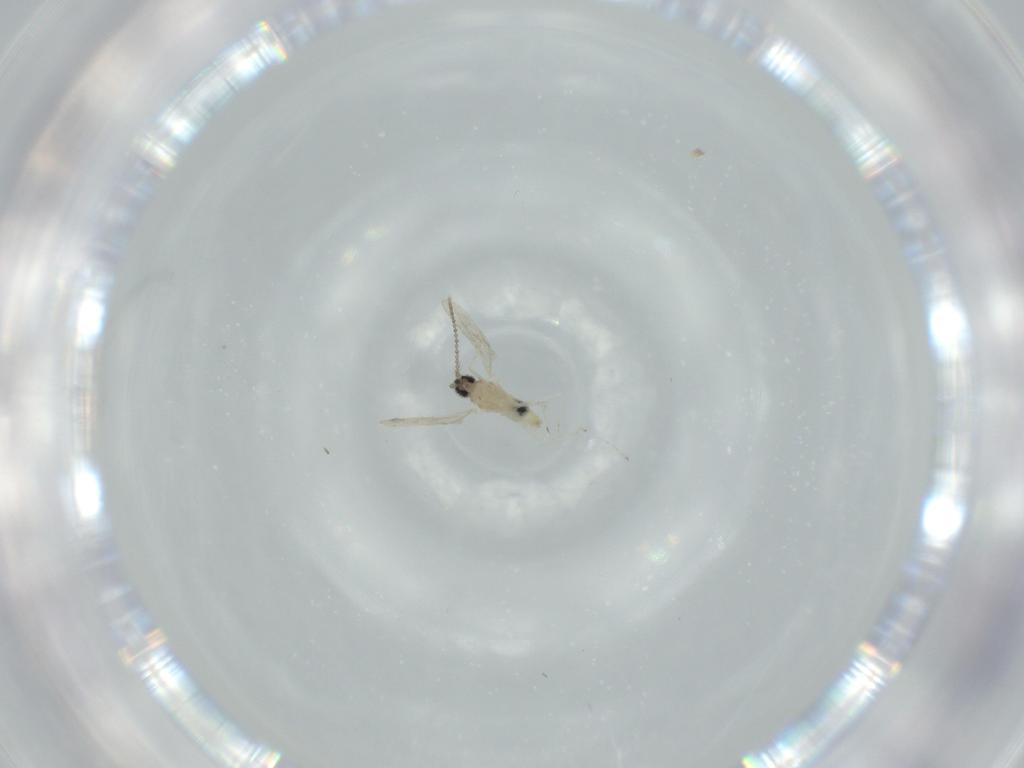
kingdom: Animalia
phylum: Arthropoda
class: Insecta
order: Diptera
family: Cecidomyiidae
